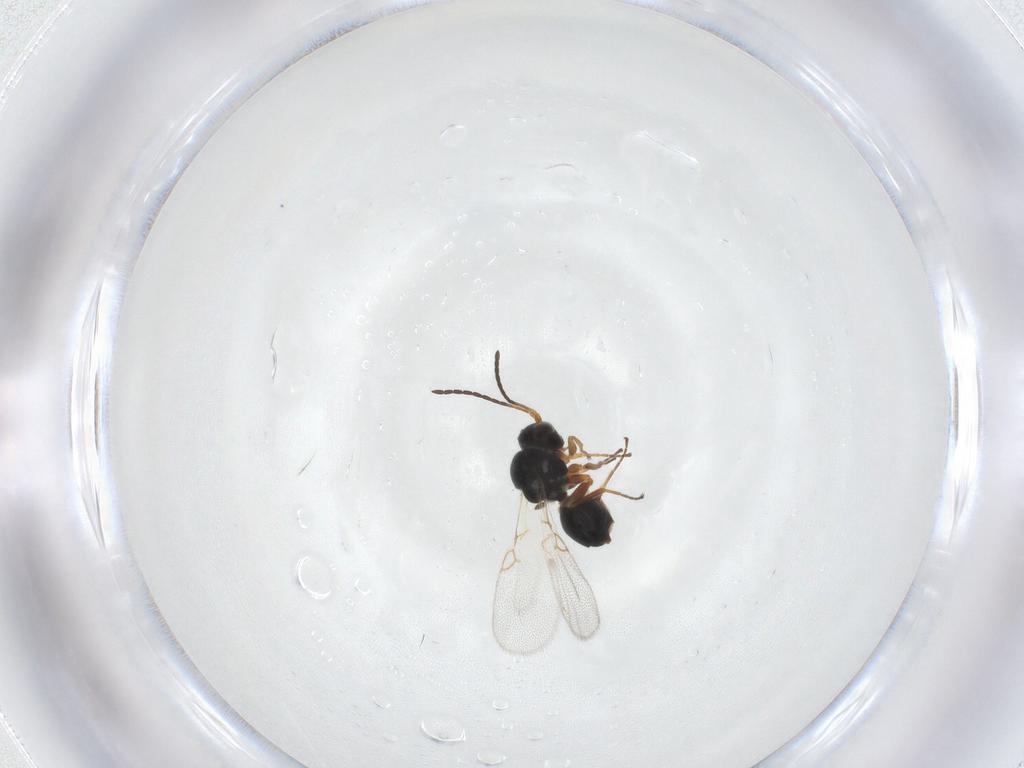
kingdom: Animalia
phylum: Arthropoda
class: Insecta
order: Hymenoptera
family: Figitidae
